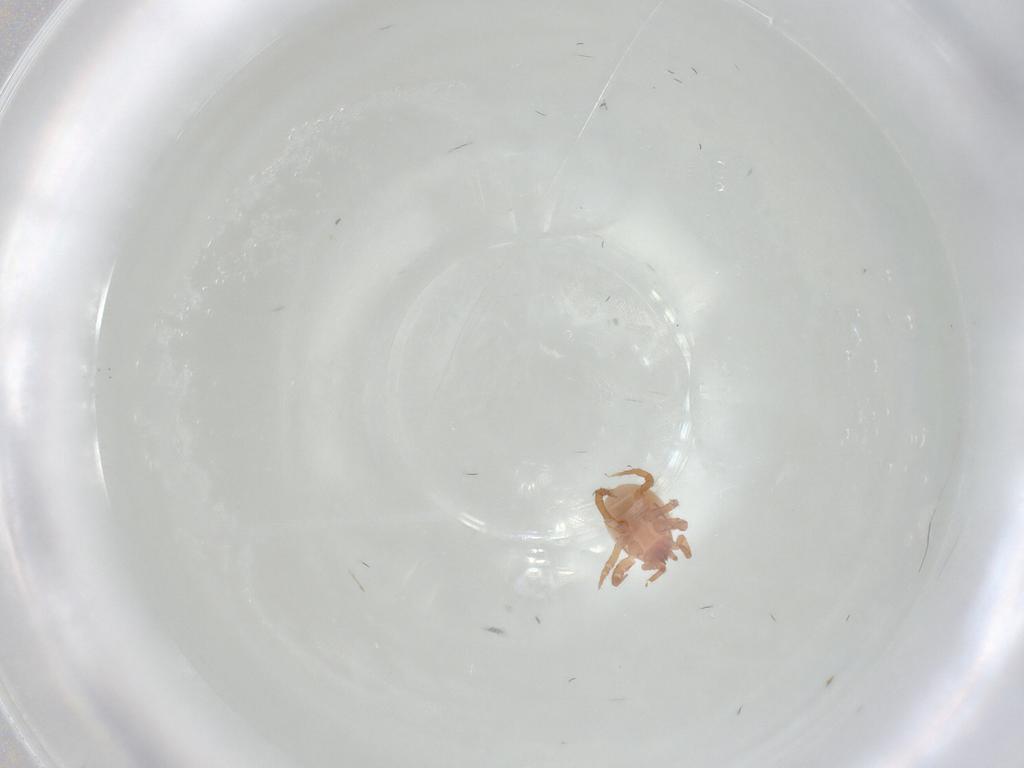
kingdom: Animalia
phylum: Arthropoda
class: Arachnida
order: Mesostigmata
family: Parasitidae
